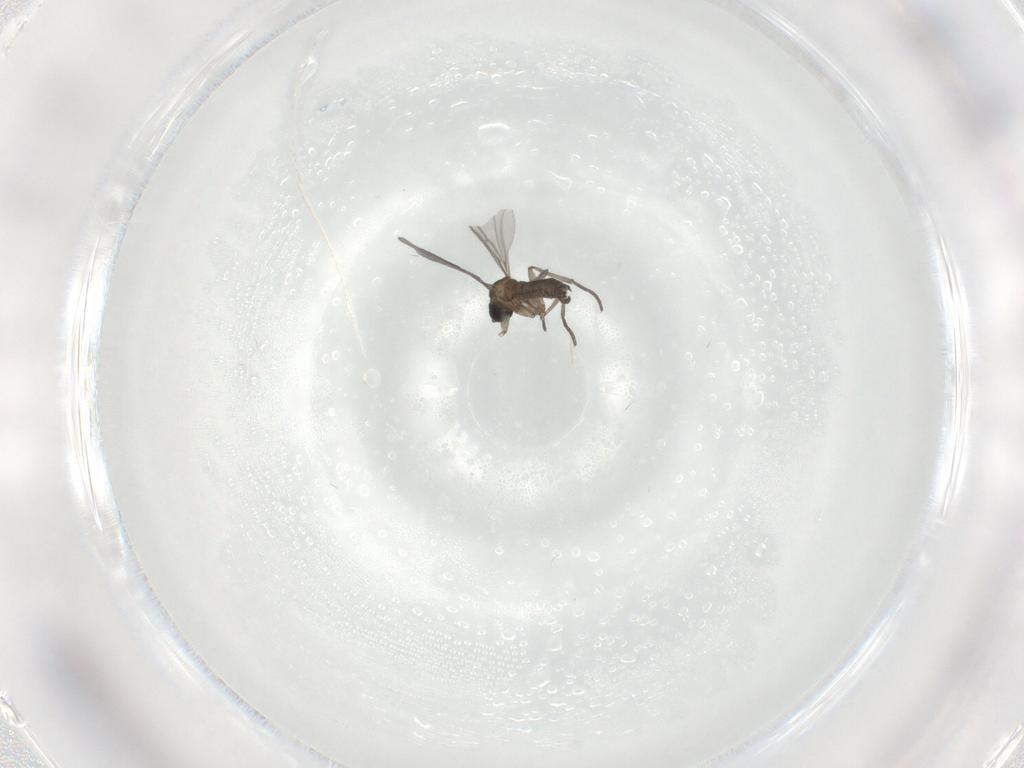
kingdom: Animalia
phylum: Arthropoda
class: Insecta
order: Diptera
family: Sciaridae
